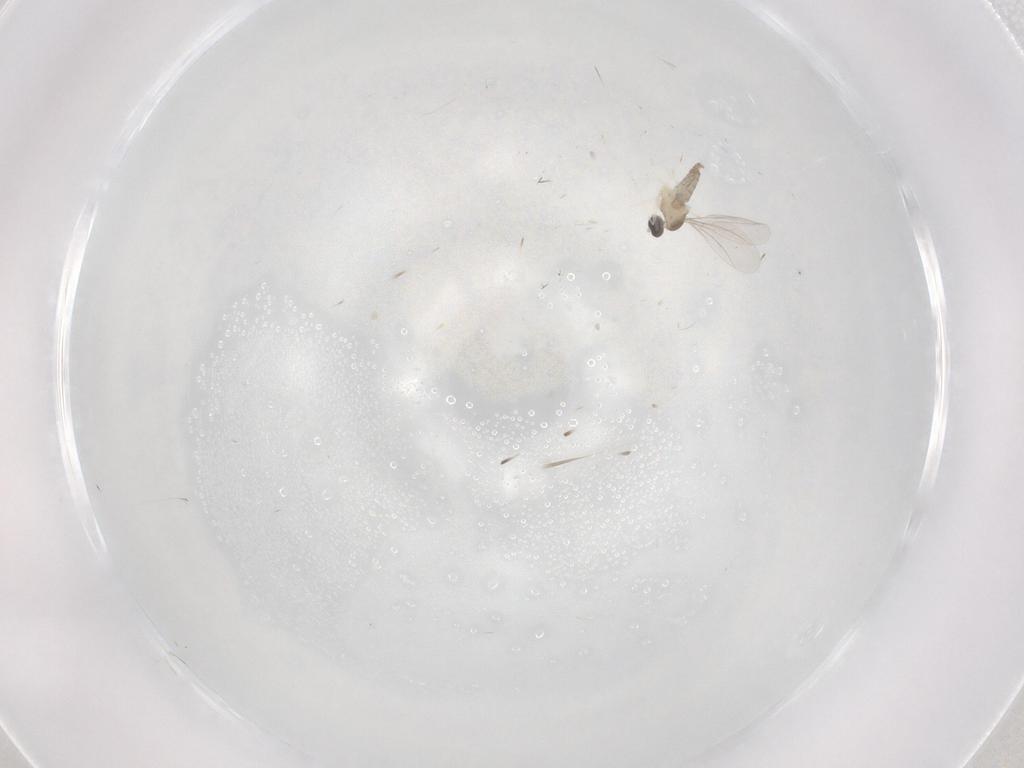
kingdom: Animalia
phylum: Arthropoda
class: Insecta
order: Diptera
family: Cecidomyiidae
